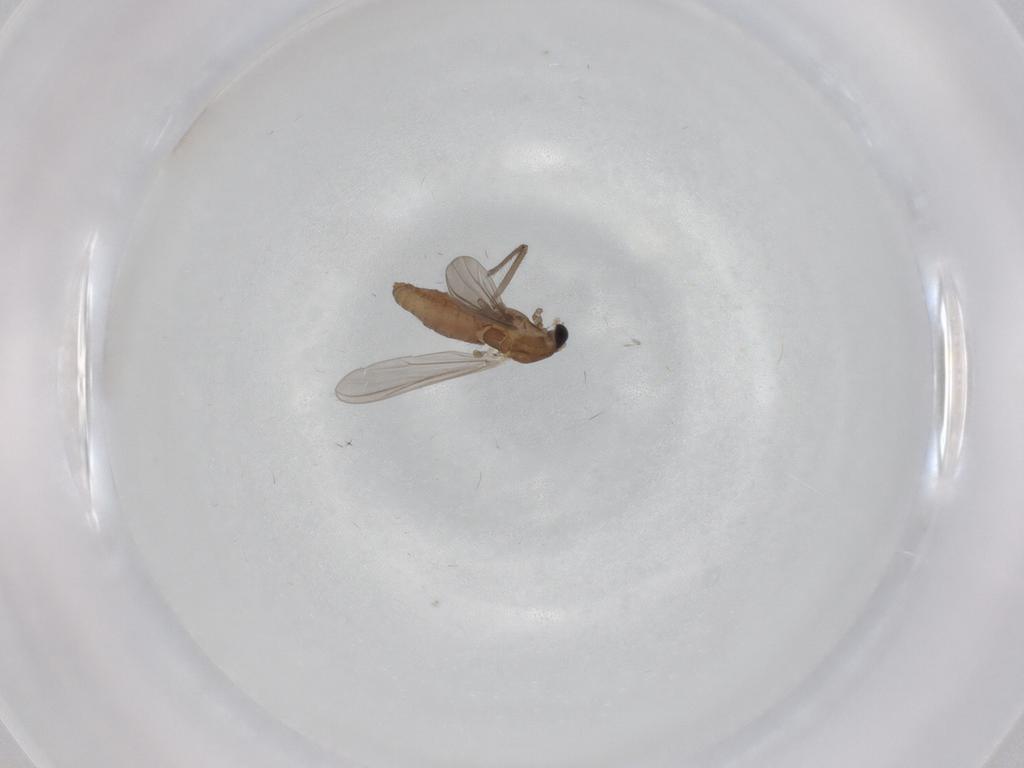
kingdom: Animalia
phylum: Arthropoda
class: Insecta
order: Diptera
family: Chironomidae
